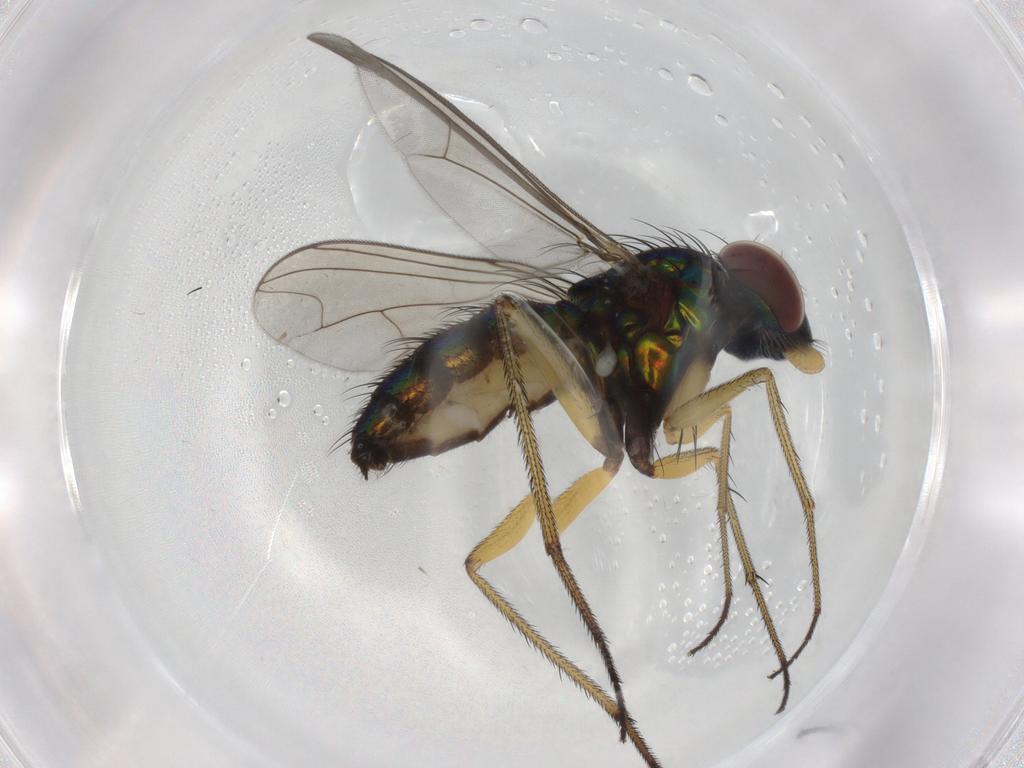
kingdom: Animalia
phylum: Arthropoda
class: Insecta
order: Diptera
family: Dolichopodidae
